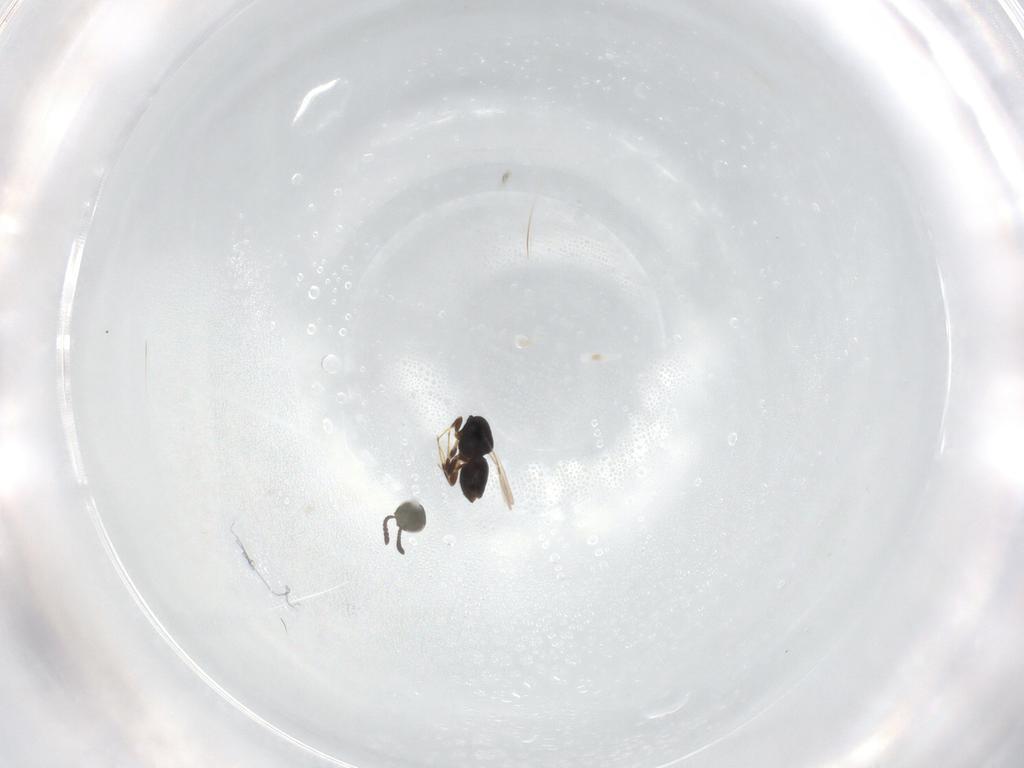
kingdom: Animalia
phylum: Arthropoda
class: Insecta
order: Hymenoptera
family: Ceraphronidae
